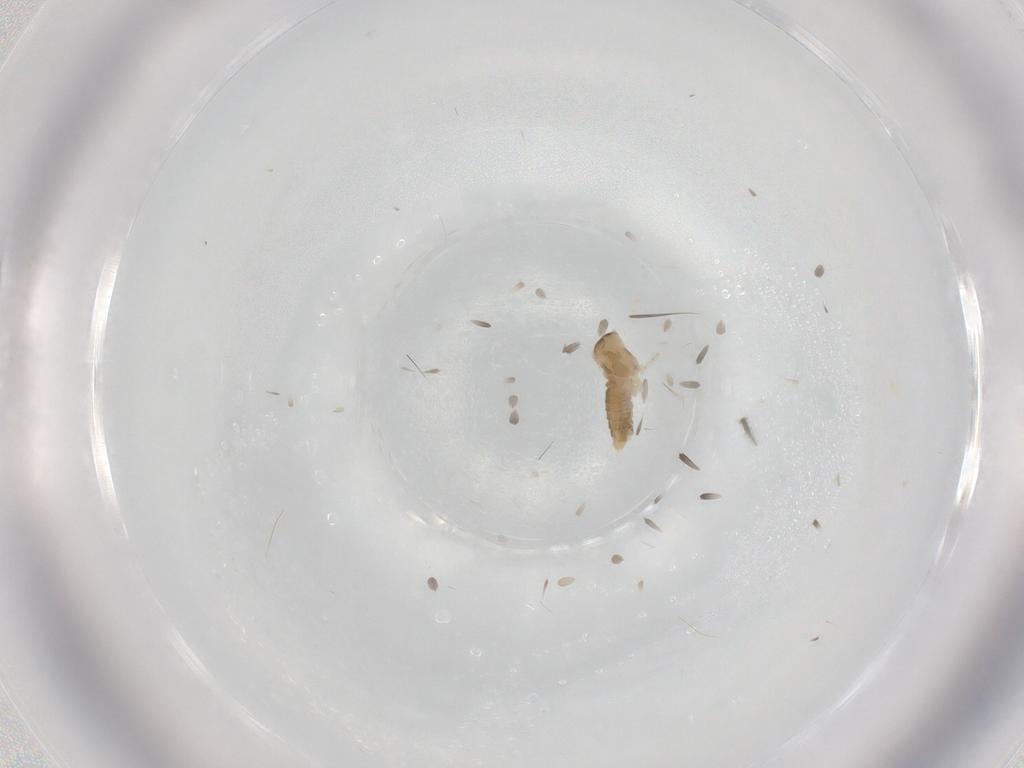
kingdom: Animalia
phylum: Arthropoda
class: Insecta
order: Diptera
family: Cecidomyiidae
